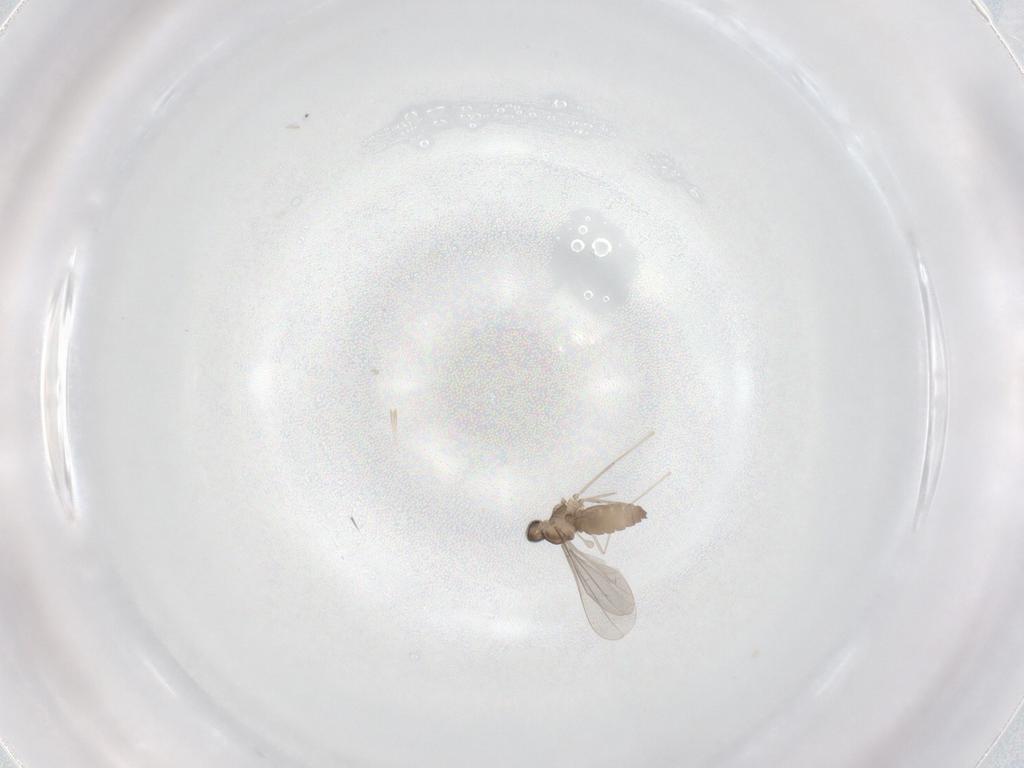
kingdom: Animalia
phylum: Arthropoda
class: Insecta
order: Diptera
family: Cecidomyiidae
